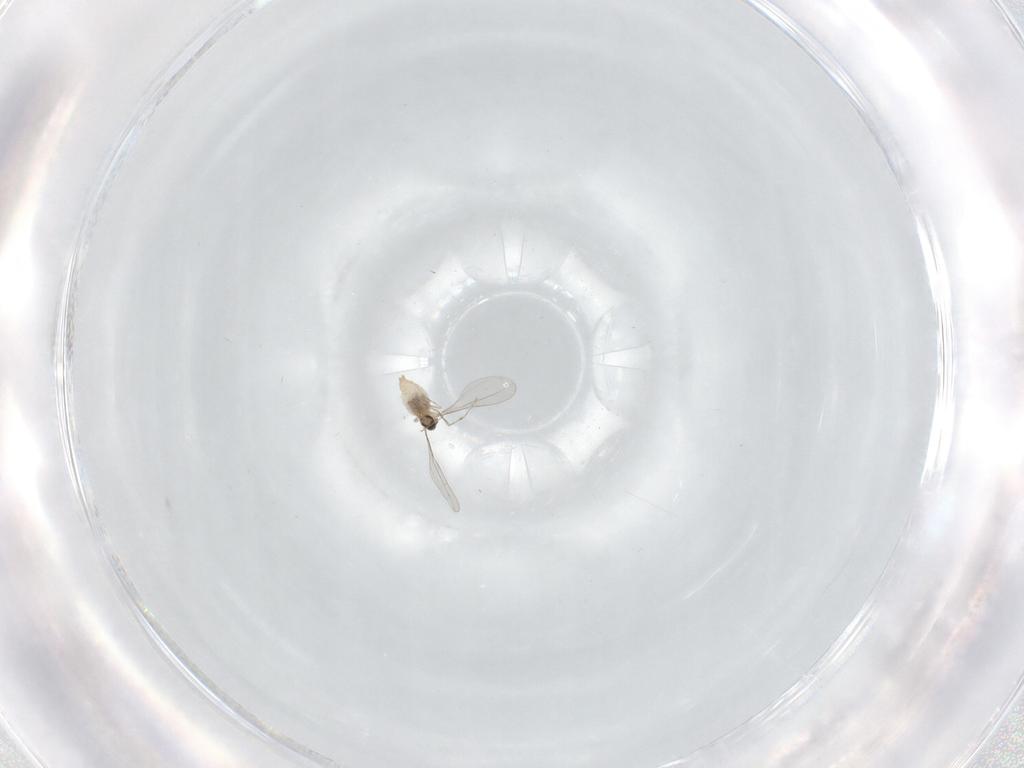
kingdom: Animalia
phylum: Arthropoda
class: Insecta
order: Diptera
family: Cecidomyiidae
